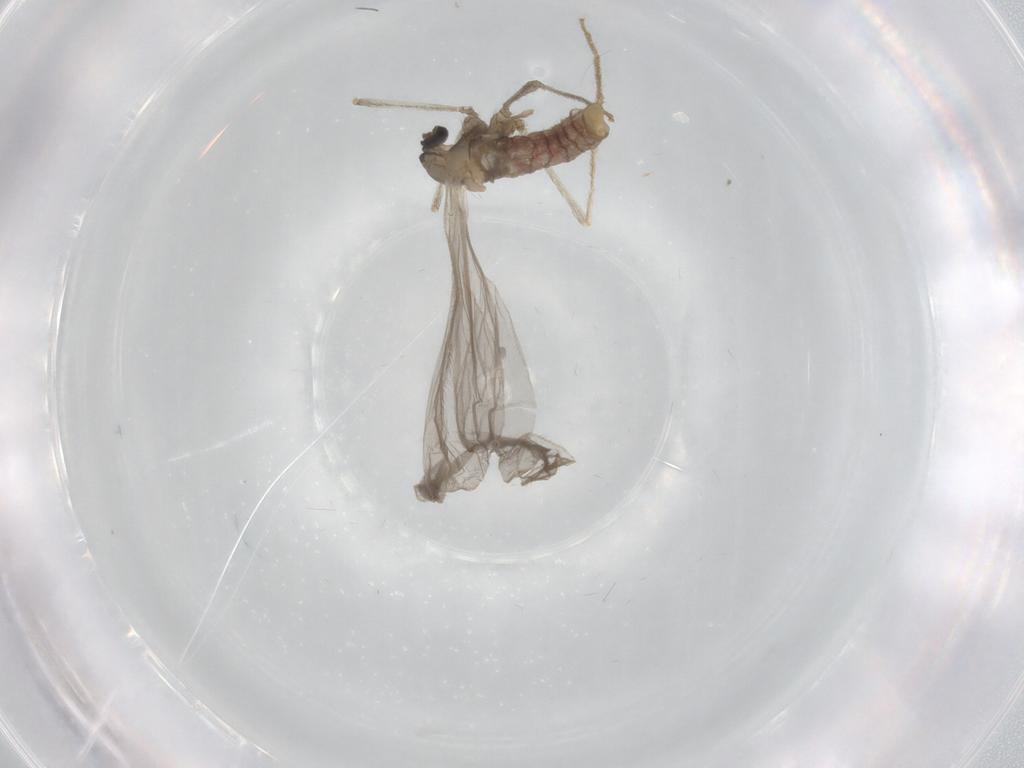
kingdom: Animalia
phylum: Arthropoda
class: Insecta
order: Diptera
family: Cecidomyiidae
